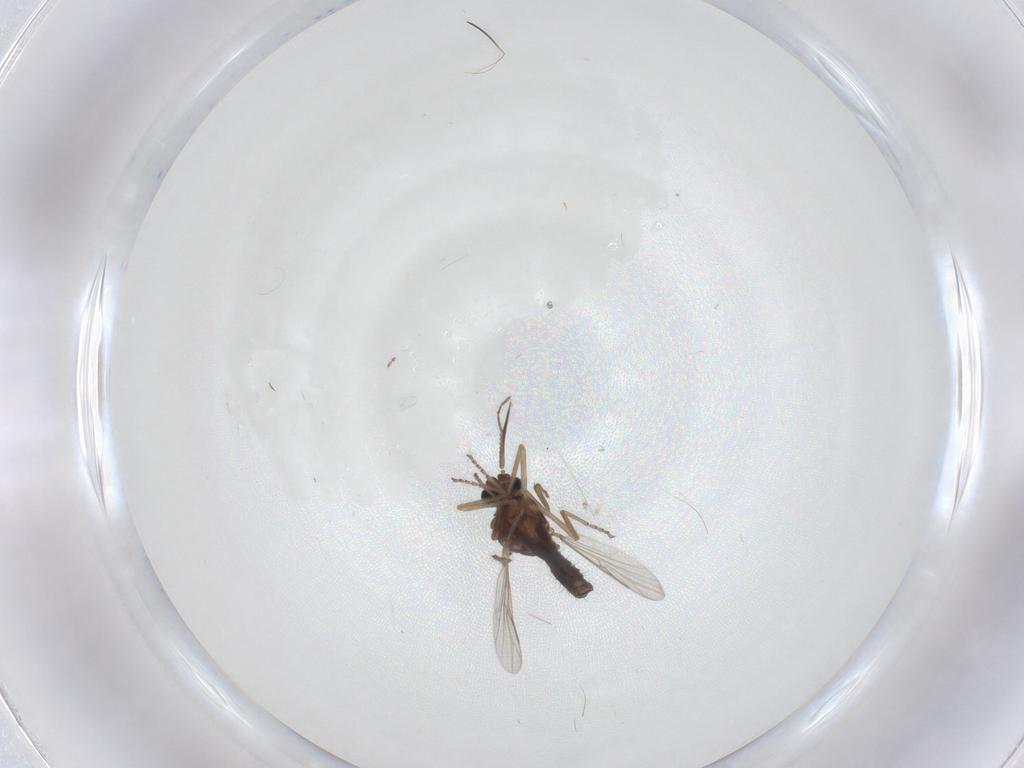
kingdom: Animalia
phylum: Arthropoda
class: Insecta
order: Diptera
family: Ceratopogonidae
